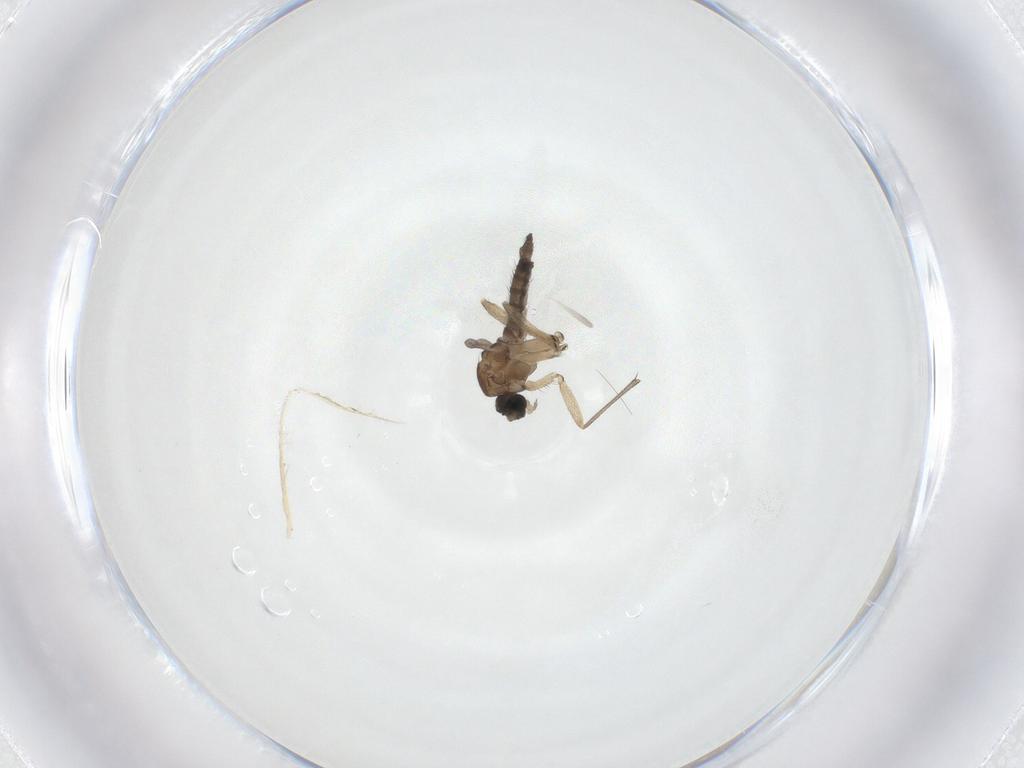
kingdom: Animalia
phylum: Arthropoda
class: Insecta
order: Diptera
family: Sciaridae
